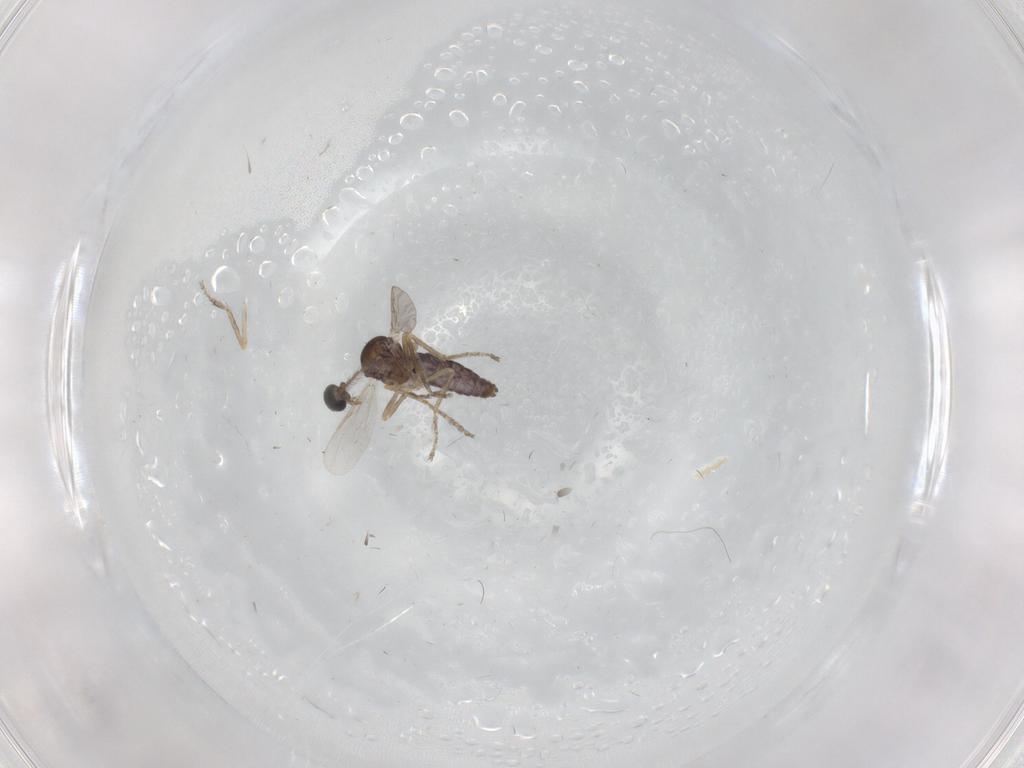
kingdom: Animalia
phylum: Arthropoda
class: Insecta
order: Diptera
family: Ceratopogonidae
